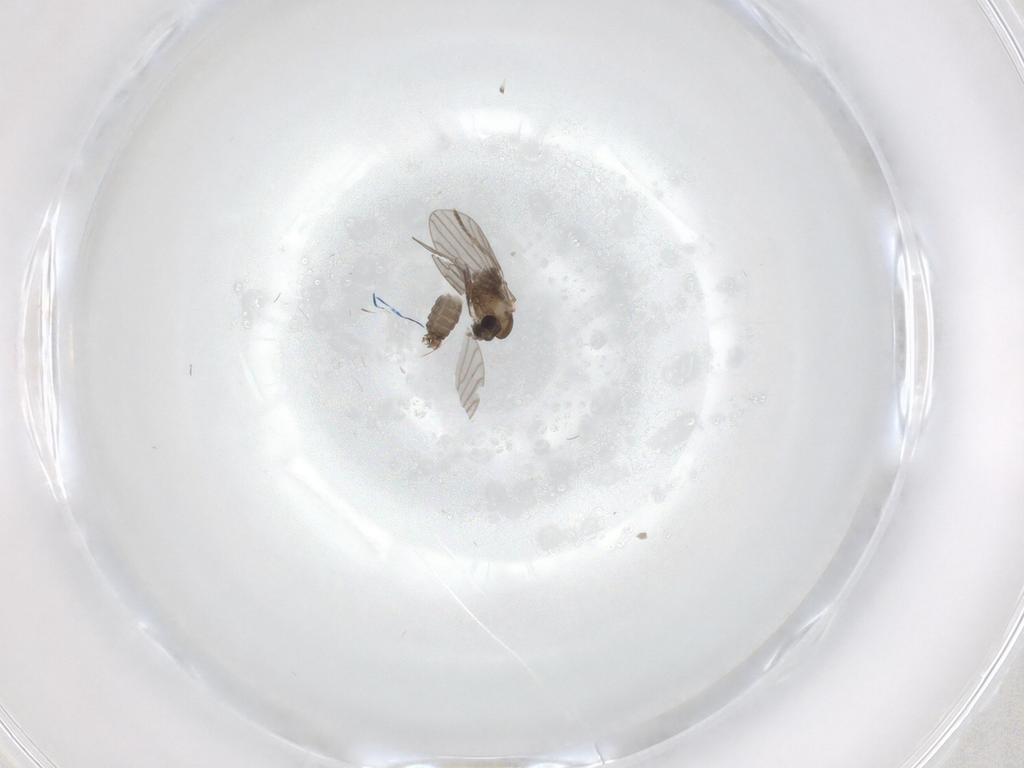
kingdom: Animalia
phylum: Arthropoda
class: Insecta
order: Diptera
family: Cecidomyiidae
